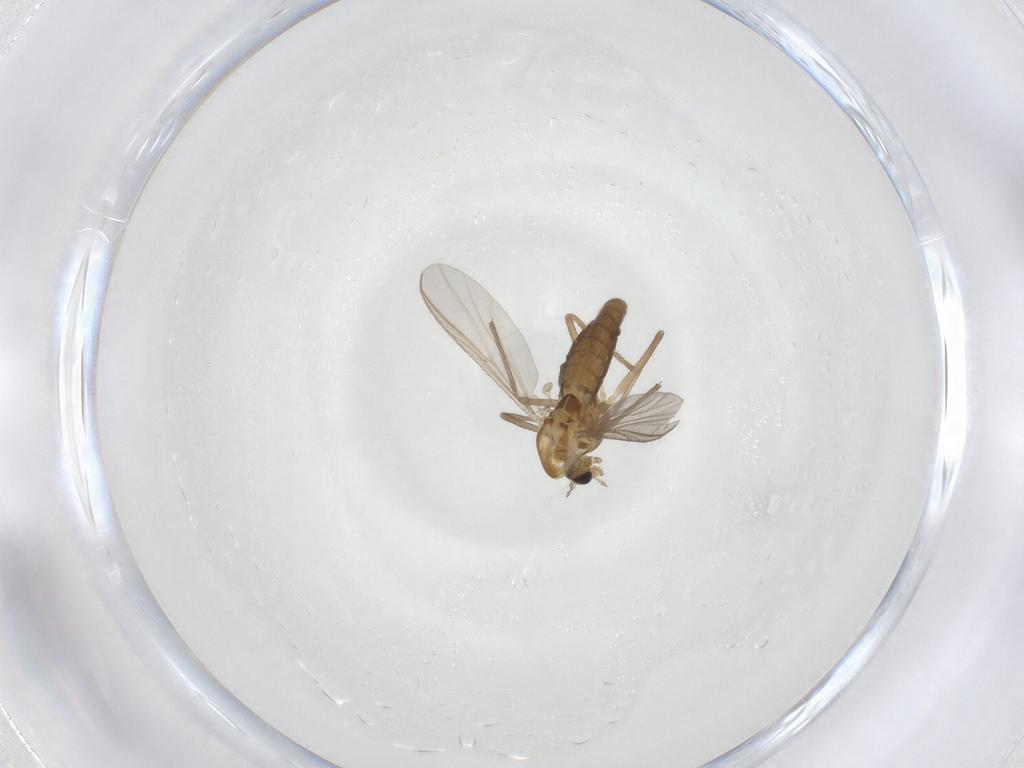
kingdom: Animalia
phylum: Arthropoda
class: Insecta
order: Diptera
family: Chironomidae
